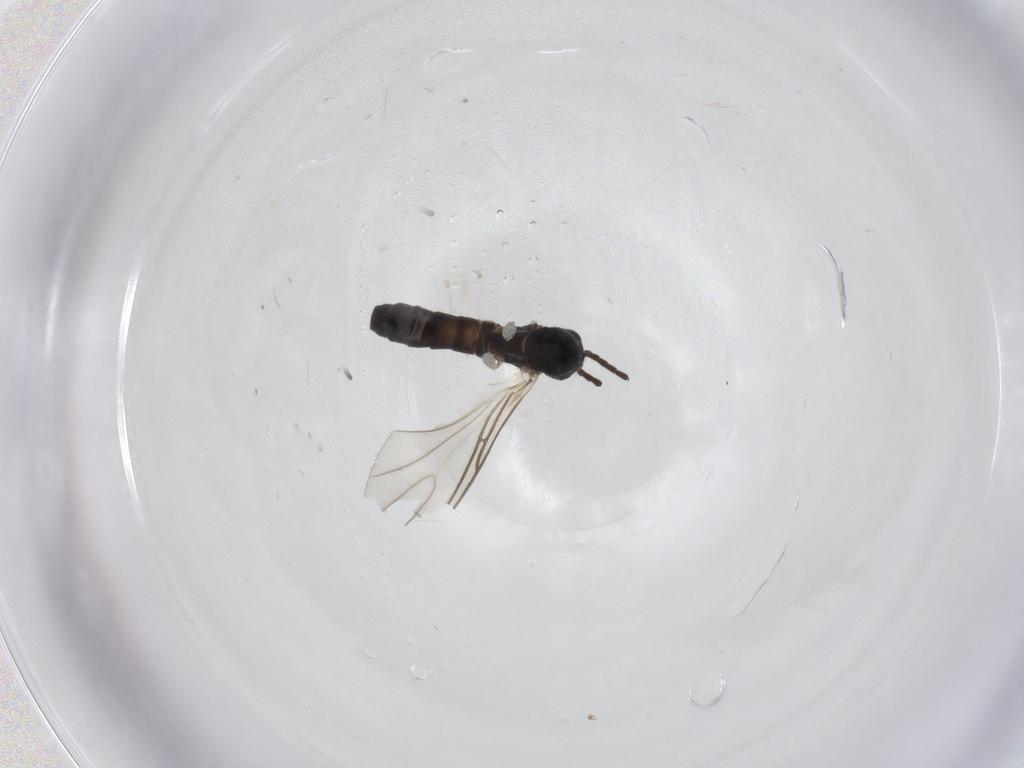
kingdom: Animalia
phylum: Arthropoda
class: Insecta
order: Diptera
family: Sciaridae
